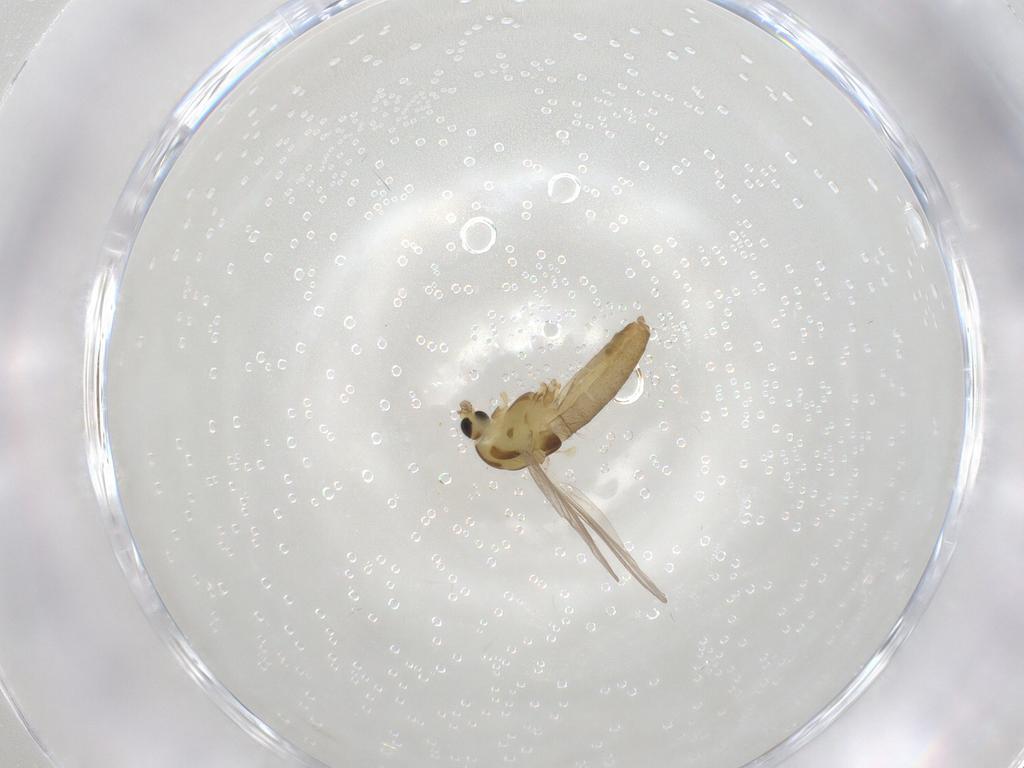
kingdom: Animalia
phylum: Arthropoda
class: Insecta
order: Diptera
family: Chironomidae
